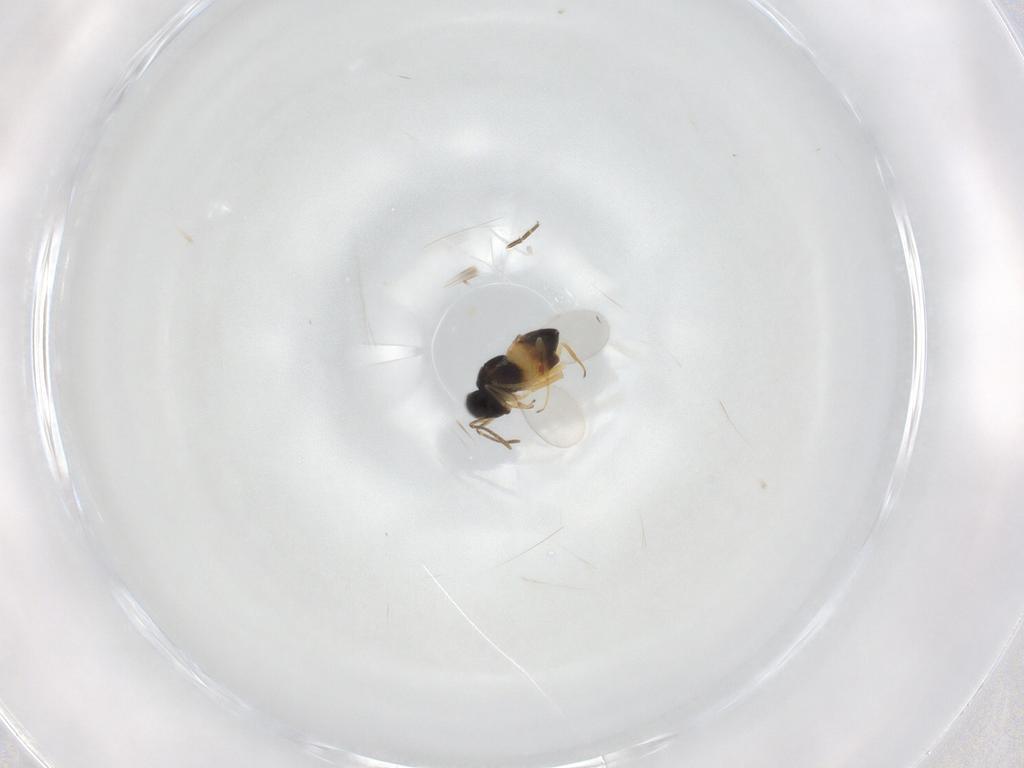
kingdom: Animalia
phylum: Arthropoda
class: Insecta
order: Hymenoptera
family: Encyrtidae
